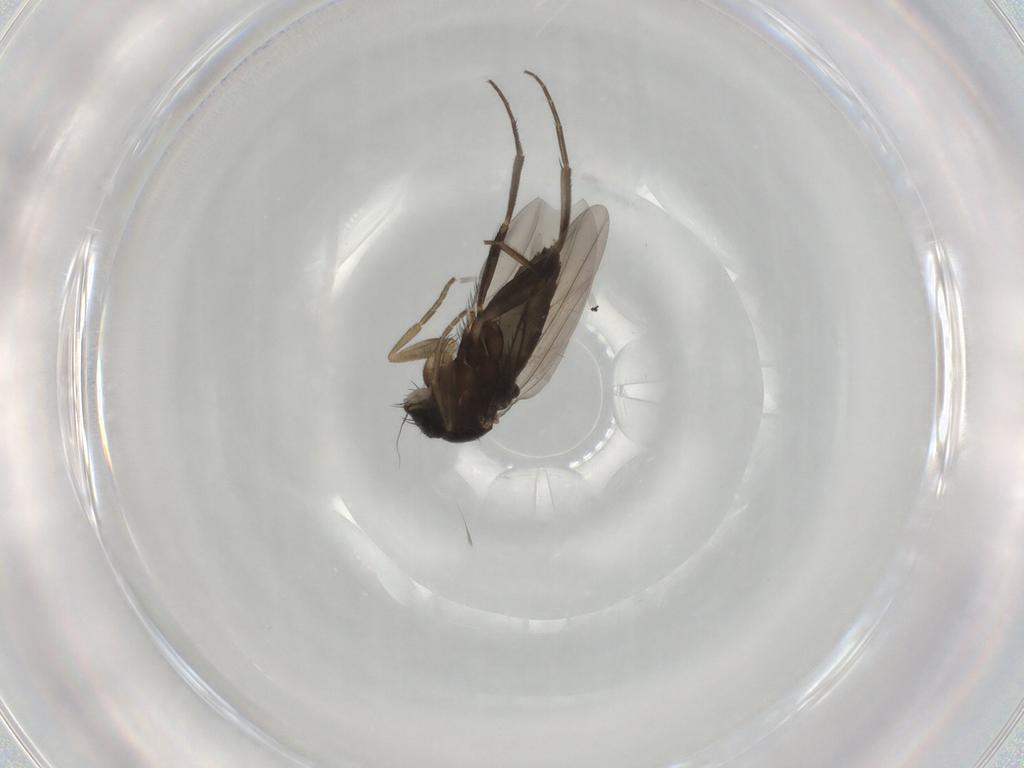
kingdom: Animalia
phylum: Arthropoda
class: Insecta
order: Diptera
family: Phoridae
